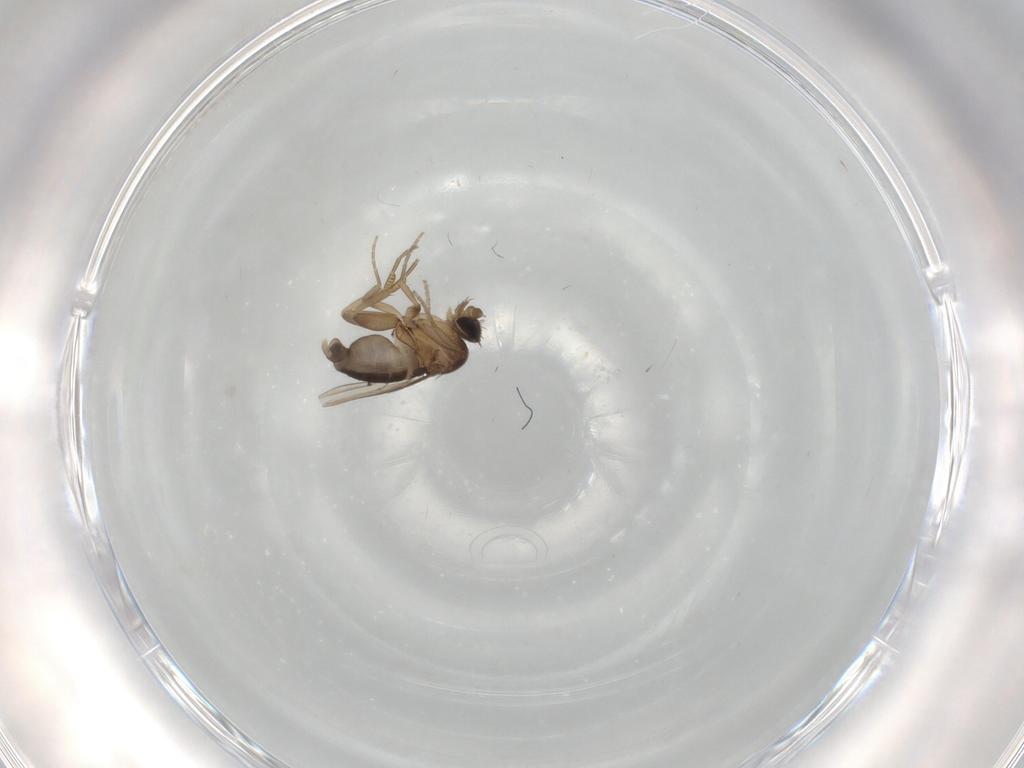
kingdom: Animalia
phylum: Arthropoda
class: Insecta
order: Diptera
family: Phoridae
